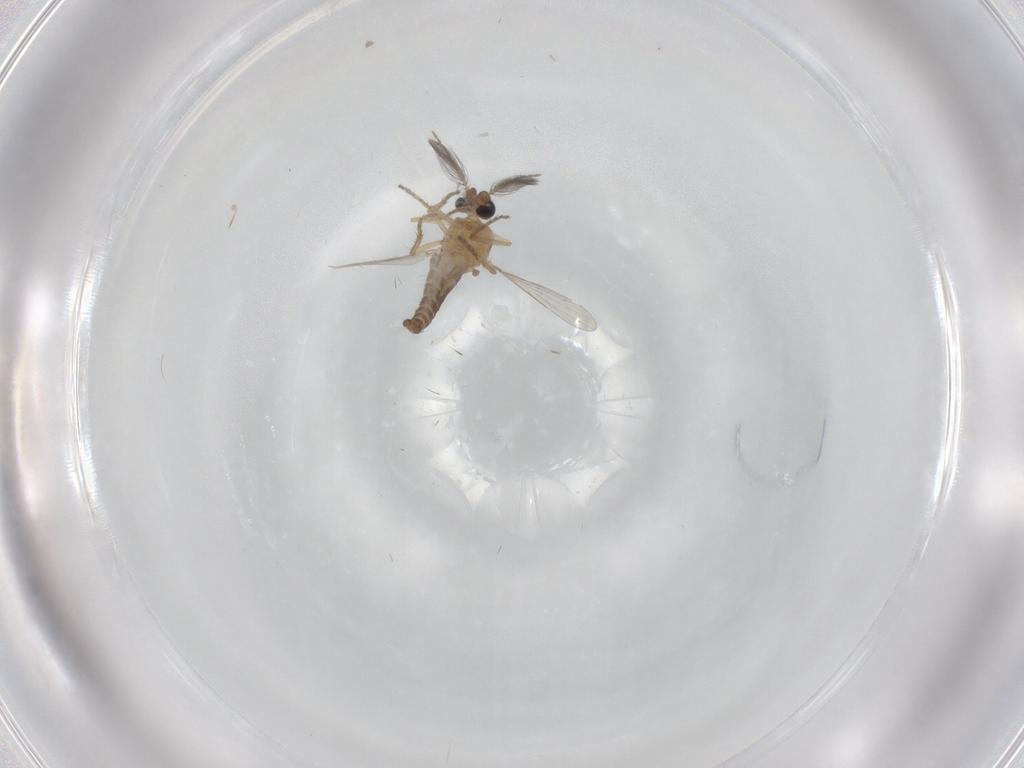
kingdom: Animalia
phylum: Arthropoda
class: Insecta
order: Diptera
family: Ceratopogonidae
